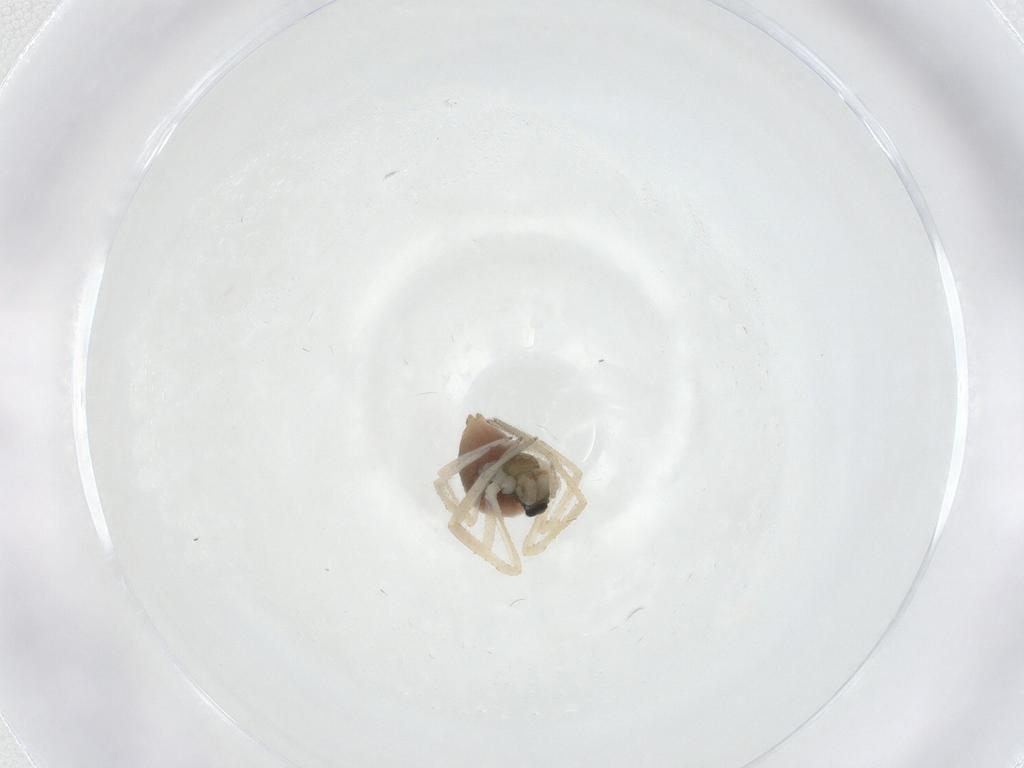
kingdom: Animalia
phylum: Arthropoda
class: Arachnida
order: Araneae
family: Linyphiidae
